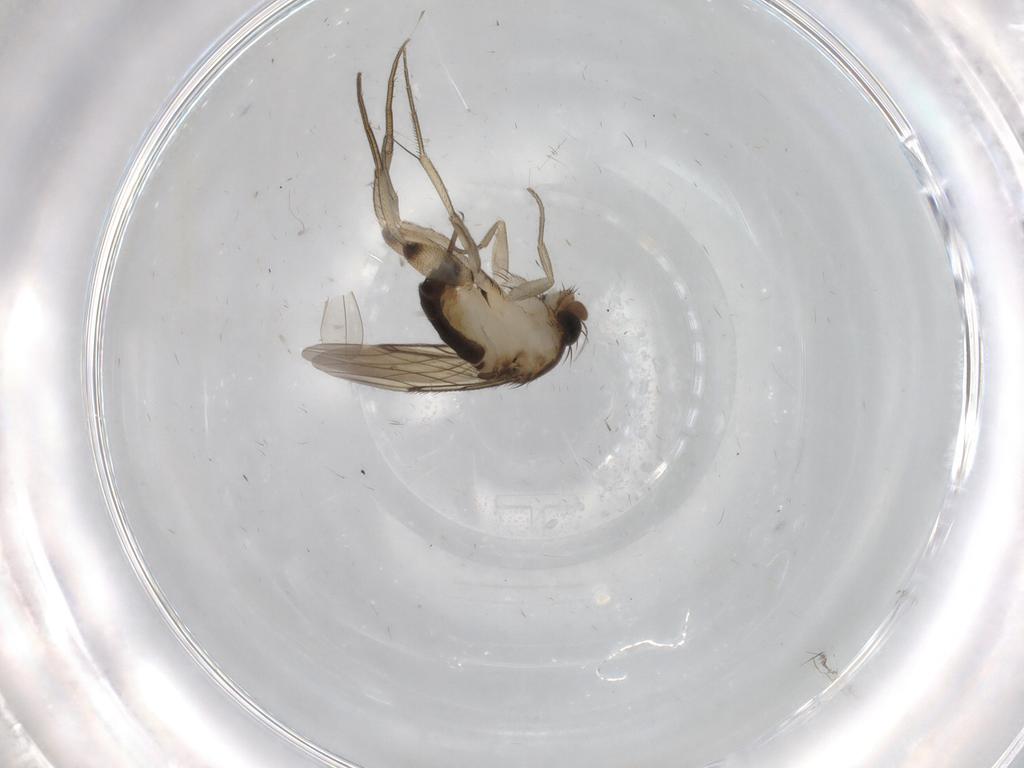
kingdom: Animalia
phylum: Arthropoda
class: Insecta
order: Diptera
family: Phoridae
